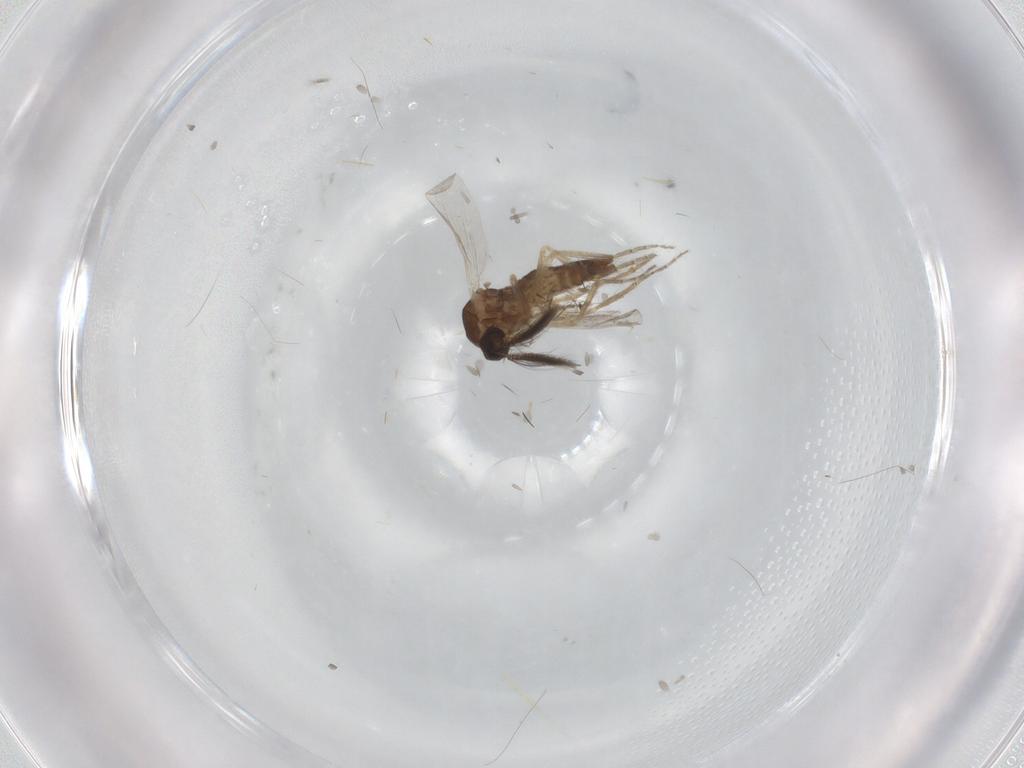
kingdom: Animalia
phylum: Arthropoda
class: Insecta
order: Diptera
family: Ceratopogonidae
